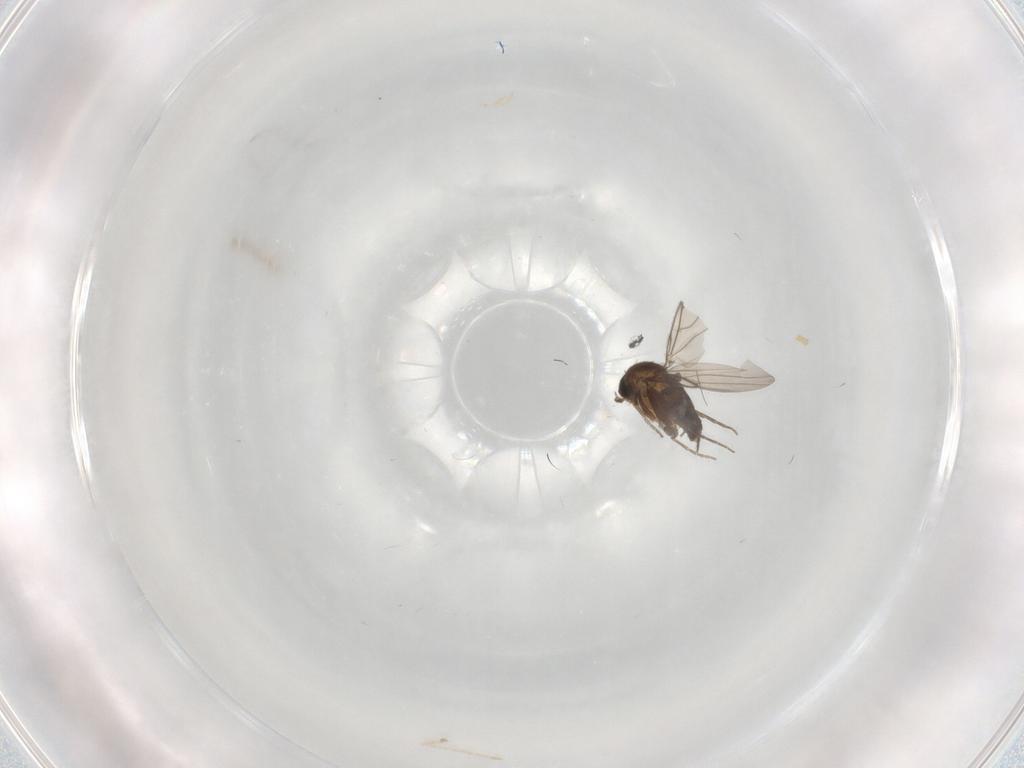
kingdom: Animalia
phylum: Arthropoda
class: Insecta
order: Diptera
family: Phoridae
